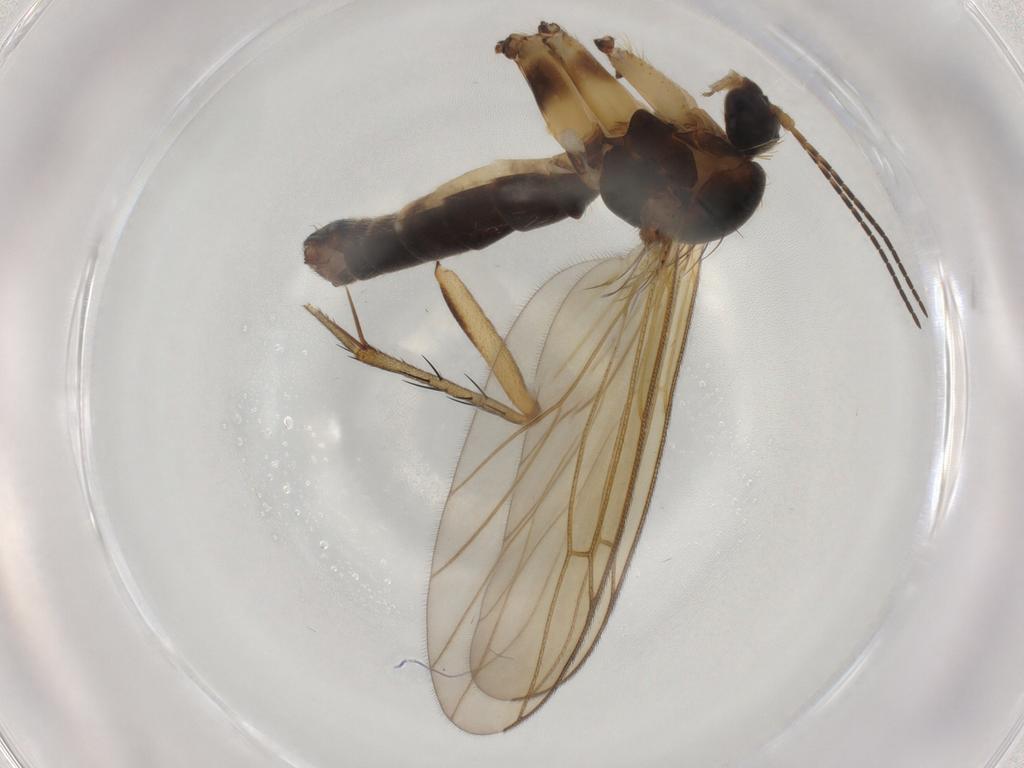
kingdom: Animalia
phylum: Arthropoda
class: Insecta
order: Diptera
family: Mycetophilidae
